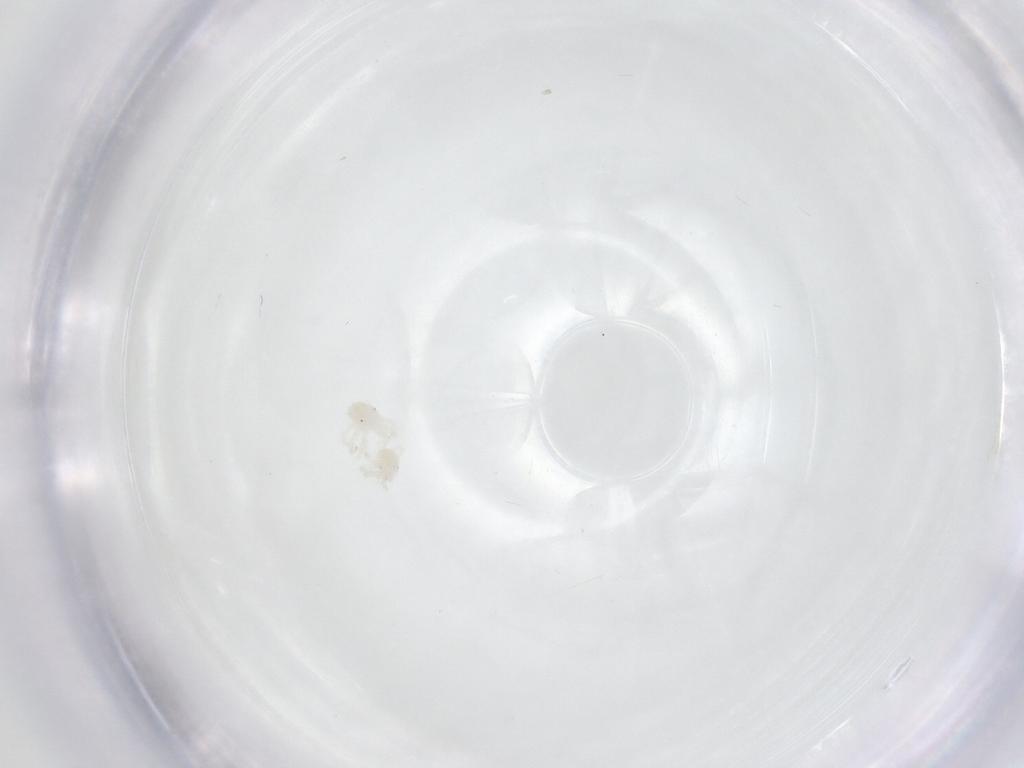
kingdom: Animalia
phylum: Arthropoda
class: Arachnida
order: Trombidiformes
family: Anystidae
